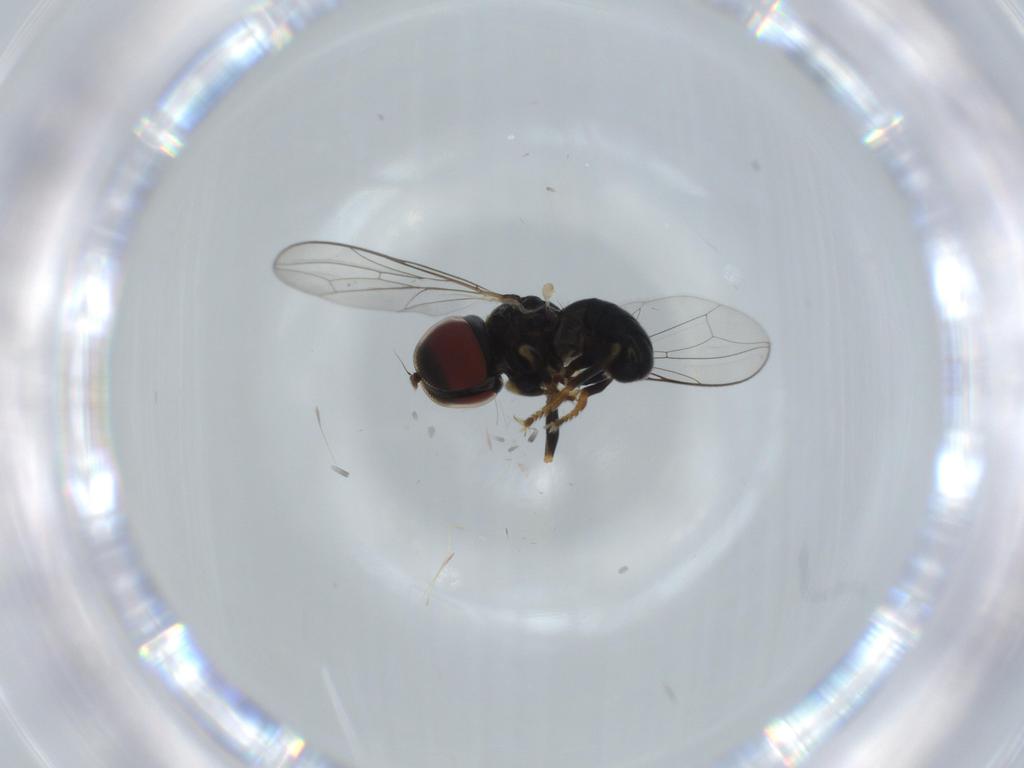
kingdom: Animalia
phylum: Arthropoda
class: Insecta
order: Diptera
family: Pipunculidae
